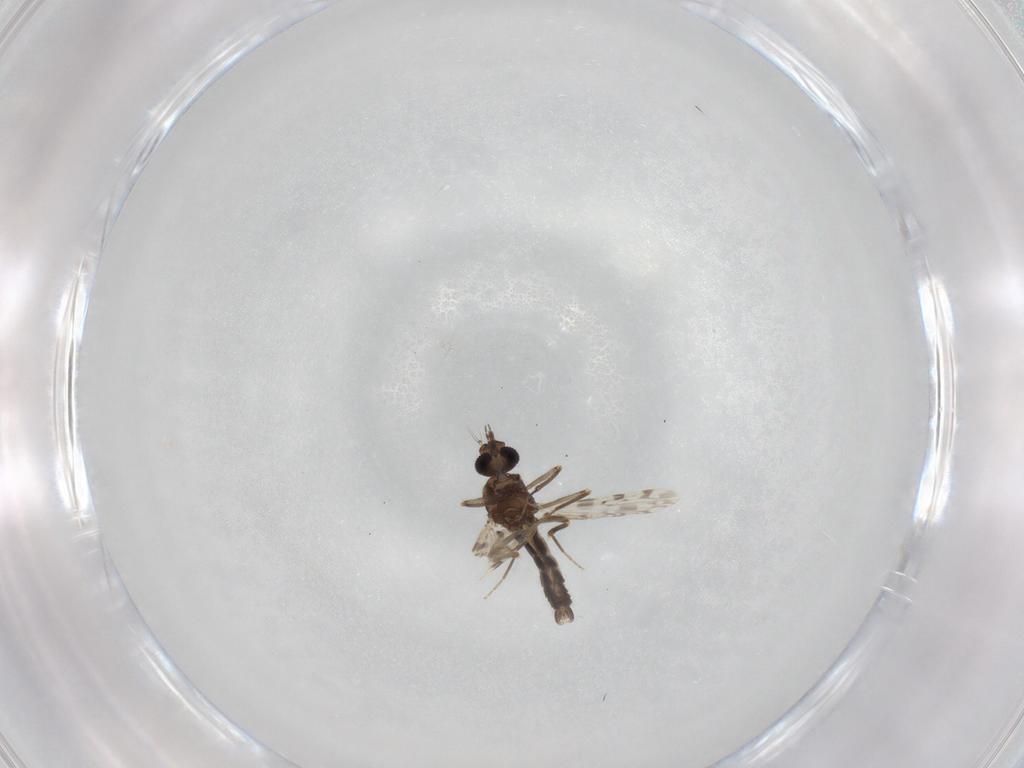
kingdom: Animalia
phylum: Arthropoda
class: Insecta
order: Diptera
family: Ceratopogonidae
